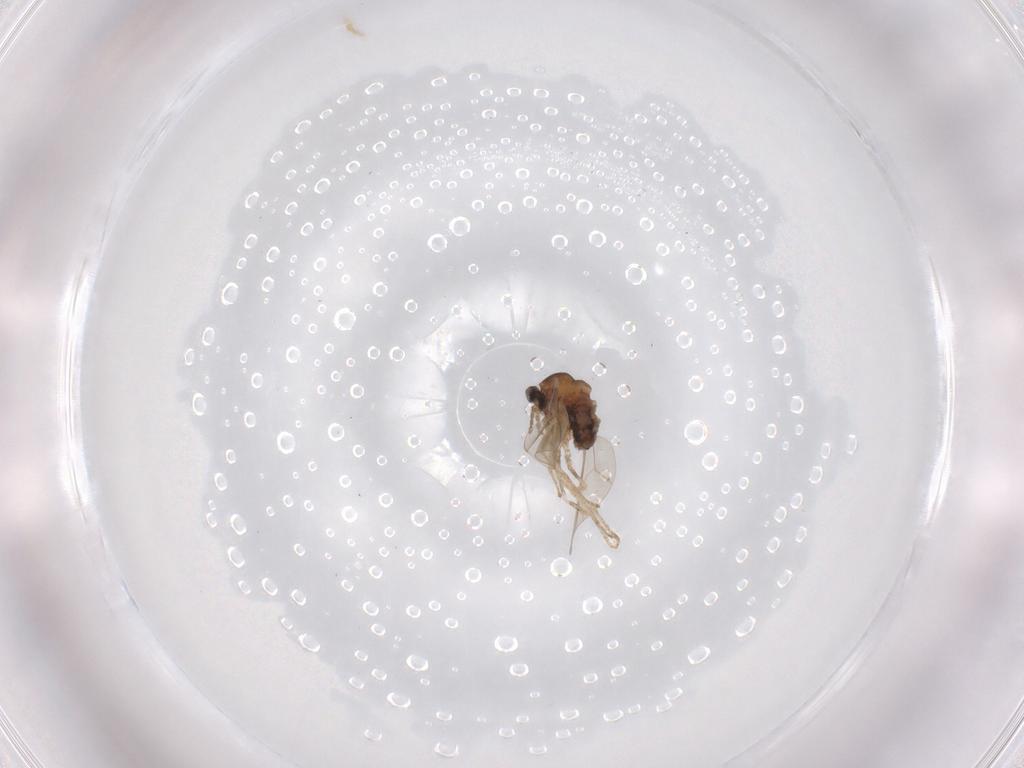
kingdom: Animalia
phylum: Arthropoda
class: Insecta
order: Diptera
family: Cecidomyiidae
